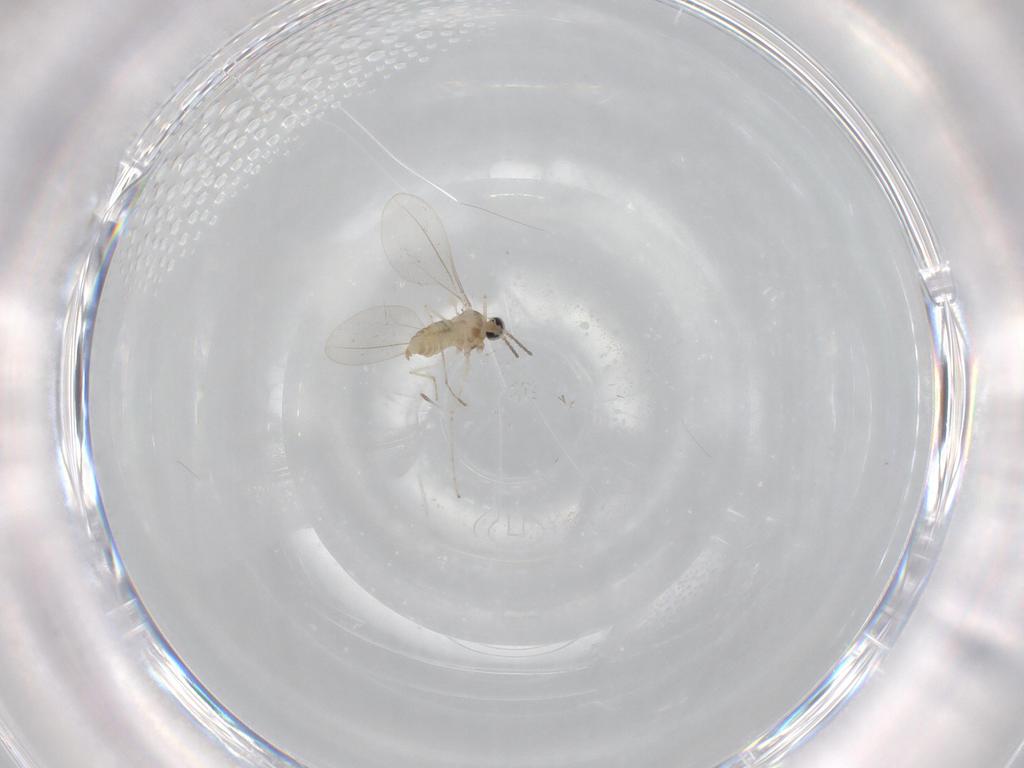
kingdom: Animalia
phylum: Arthropoda
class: Insecta
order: Diptera
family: Cecidomyiidae
